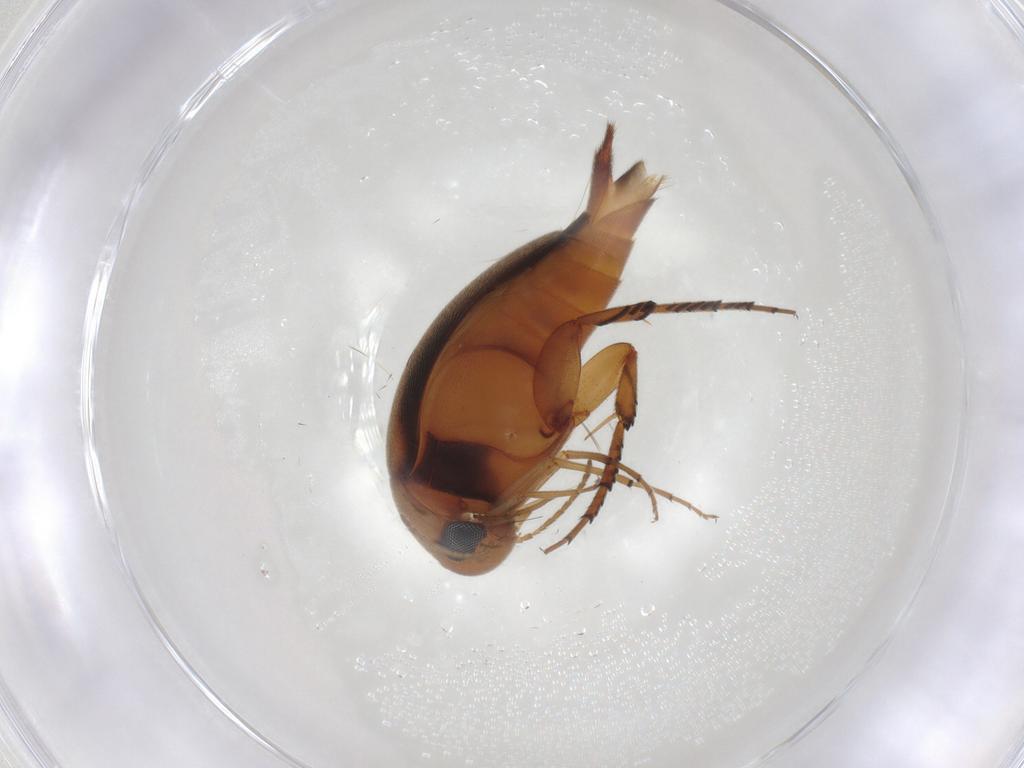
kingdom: Animalia
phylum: Arthropoda
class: Insecta
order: Coleoptera
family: Mordellidae
